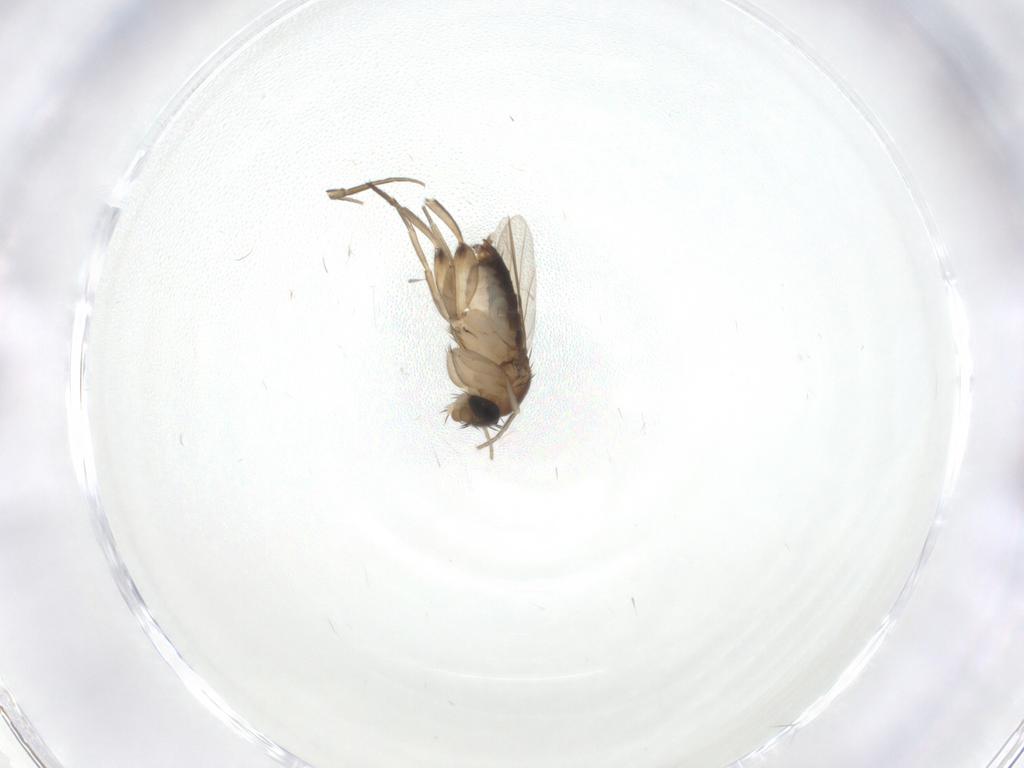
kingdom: Animalia
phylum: Arthropoda
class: Insecta
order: Diptera
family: Phoridae
